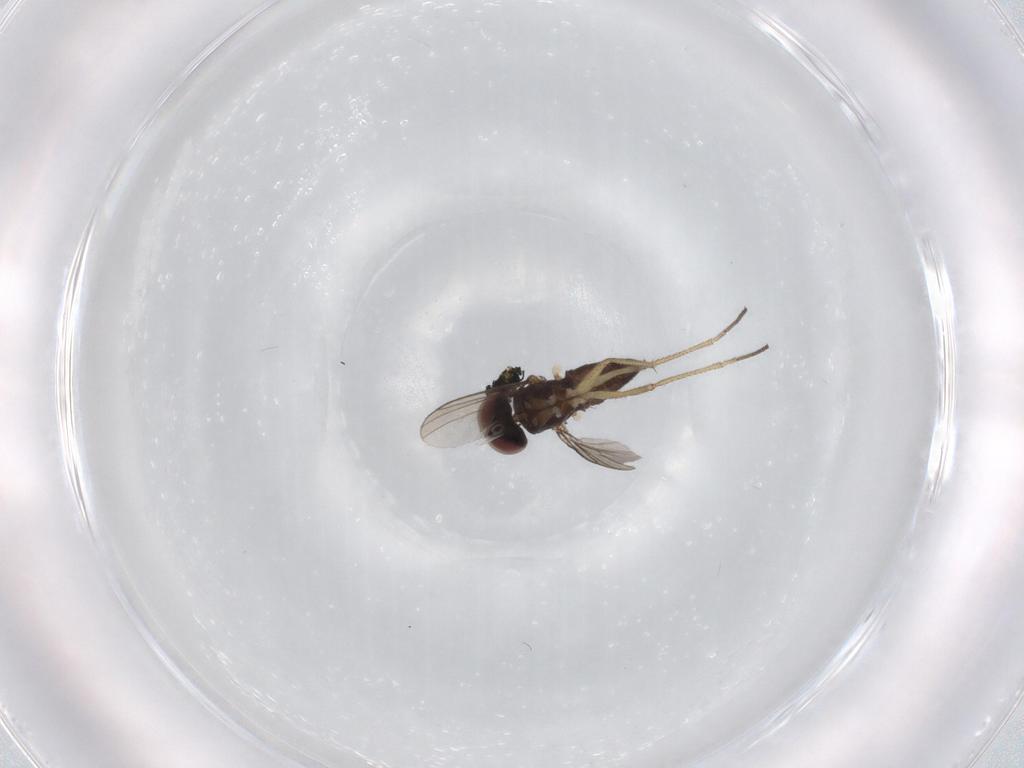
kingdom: Animalia
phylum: Arthropoda
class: Insecta
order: Diptera
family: Dolichopodidae
